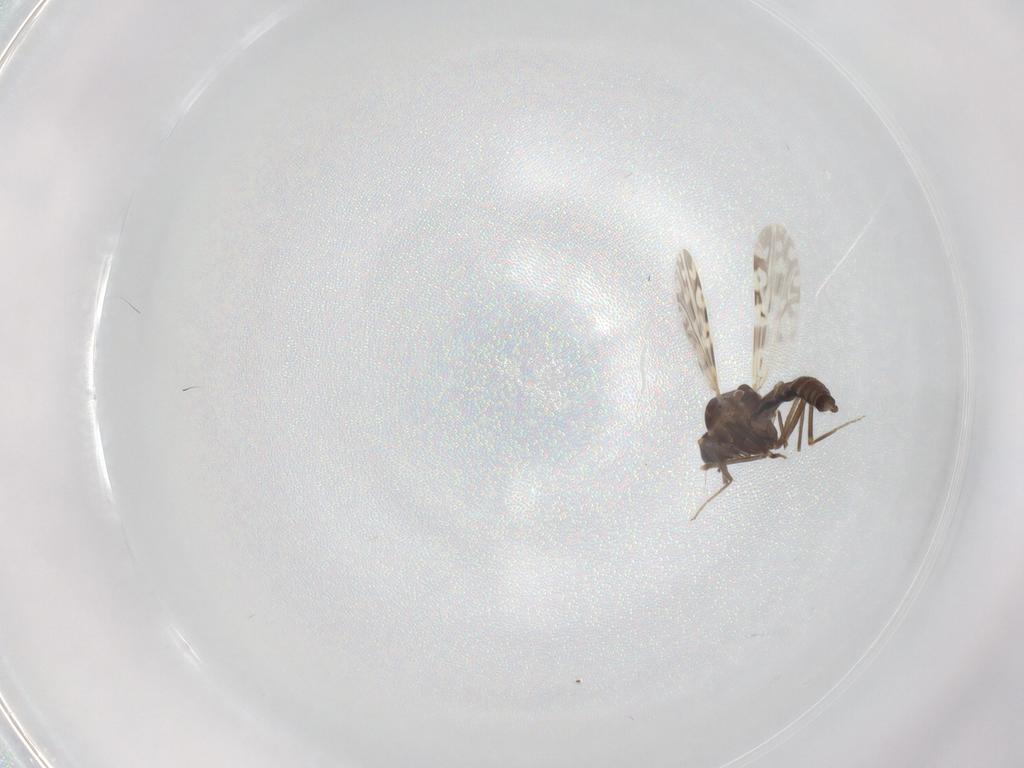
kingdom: Animalia
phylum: Arthropoda
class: Insecta
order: Diptera
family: Ceratopogonidae
